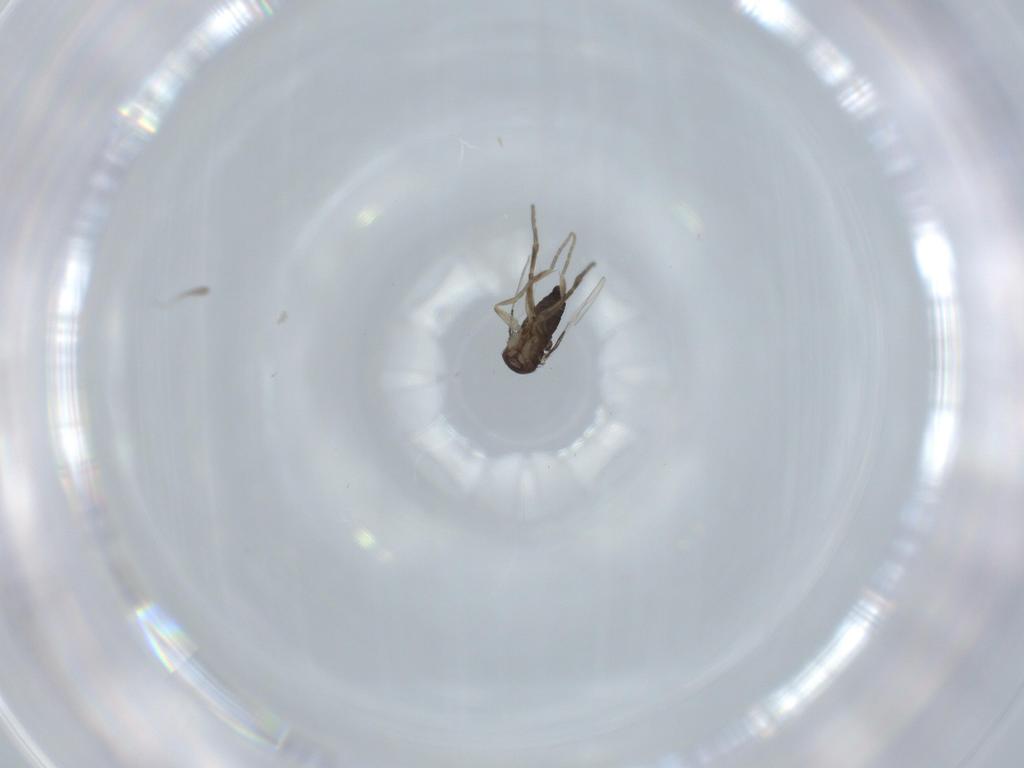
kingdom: Animalia
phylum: Arthropoda
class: Insecta
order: Diptera
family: Phoridae
